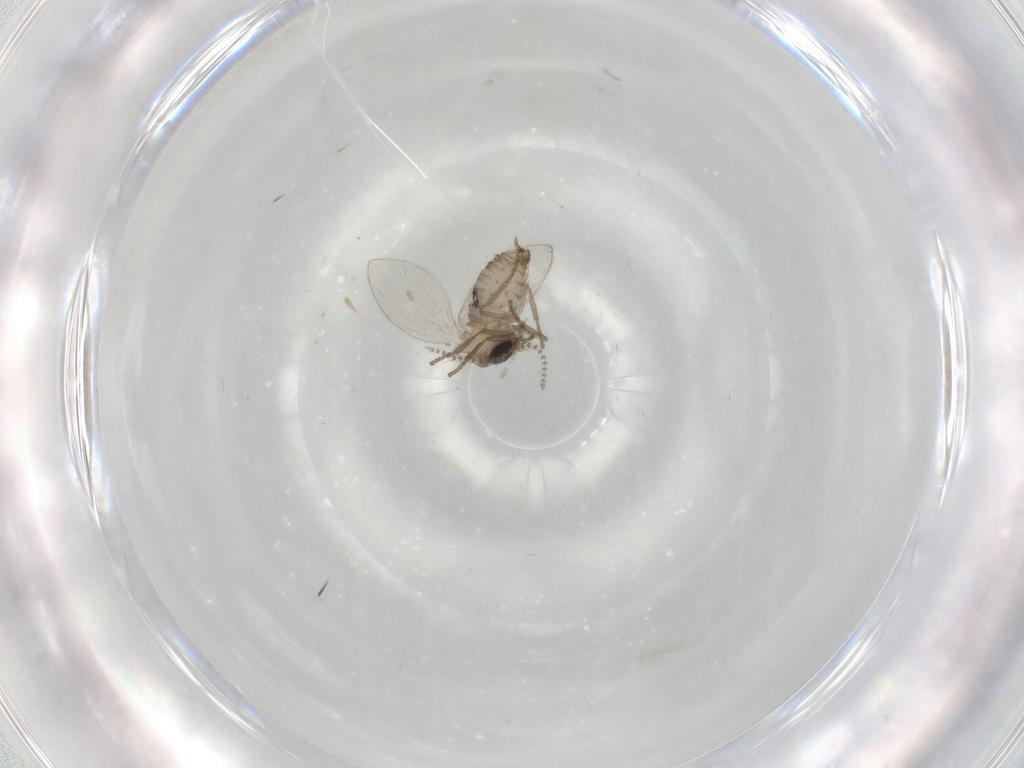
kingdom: Animalia
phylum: Arthropoda
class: Insecta
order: Diptera
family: Psychodidae
